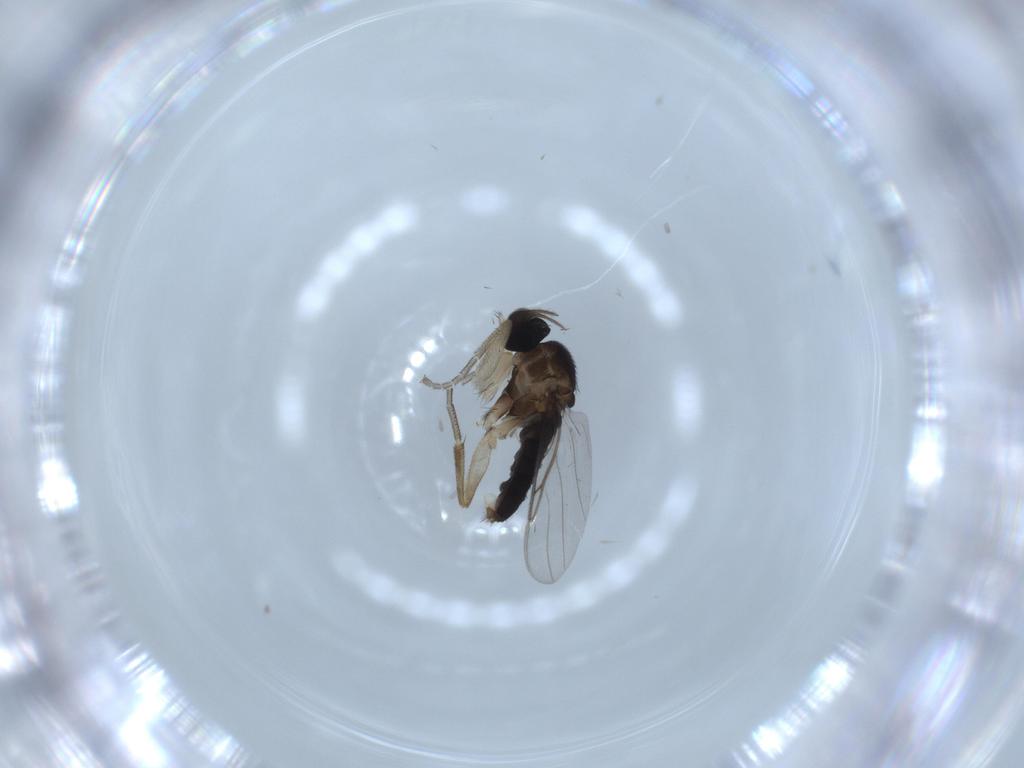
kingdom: Animalia
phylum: Arthropoda
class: Insecta
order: Diptera
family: Phoridae
